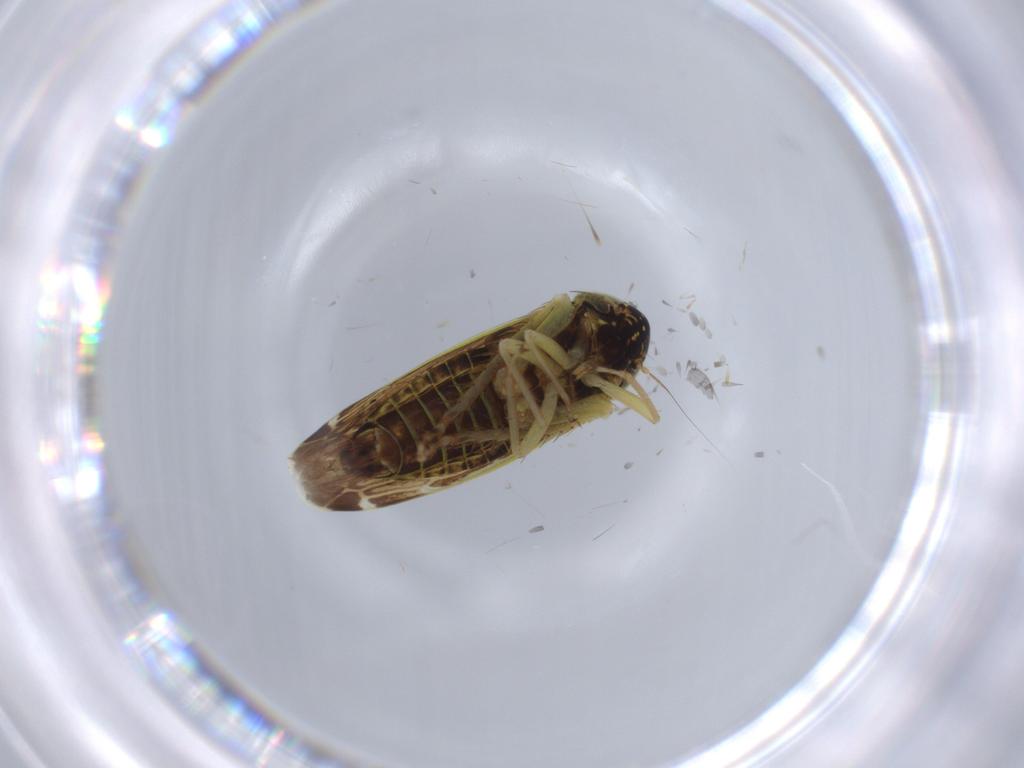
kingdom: Animalia
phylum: Arthropoda
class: Insecta
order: Hemiptera
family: Cicadellidae
